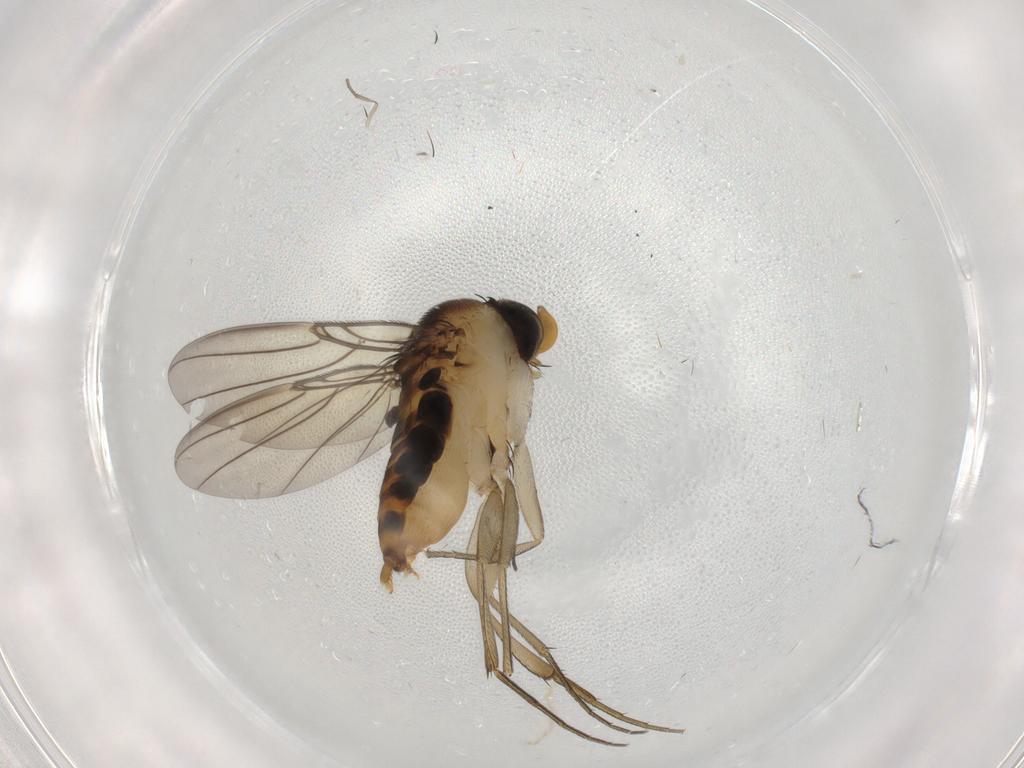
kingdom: Animalia
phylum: Arthropoda
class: Insecta
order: Diptera
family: Phoridae
